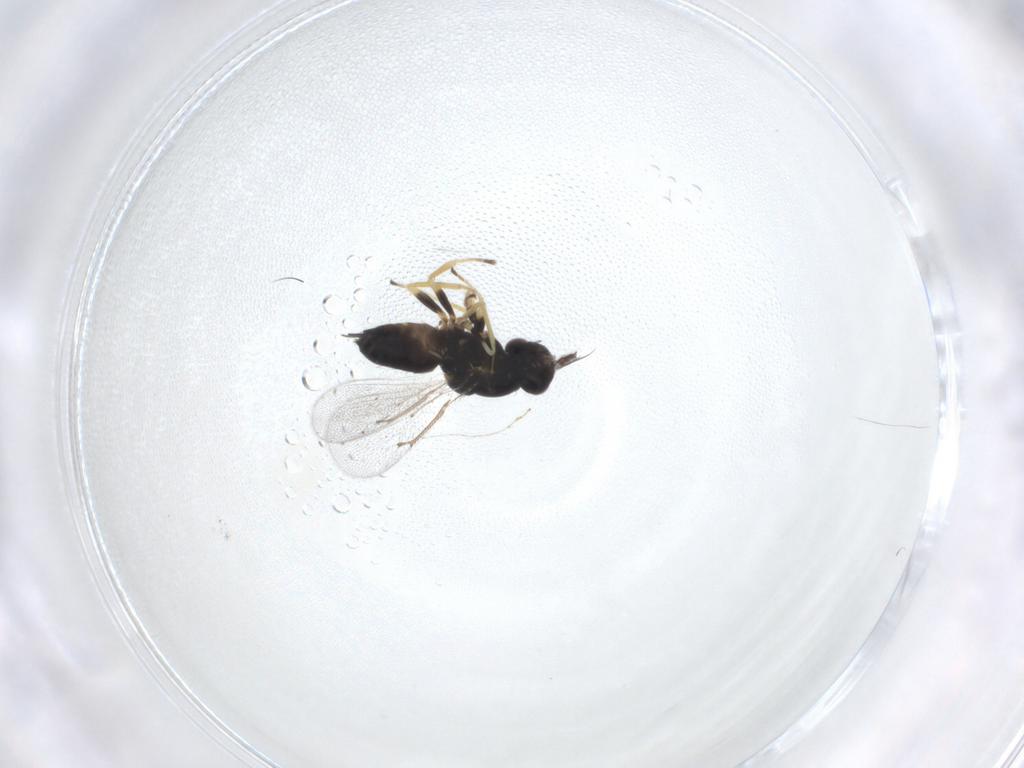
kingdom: Animalia
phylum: Arthropoda
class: Insecta
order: Hymenoptera
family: Eulophidae
